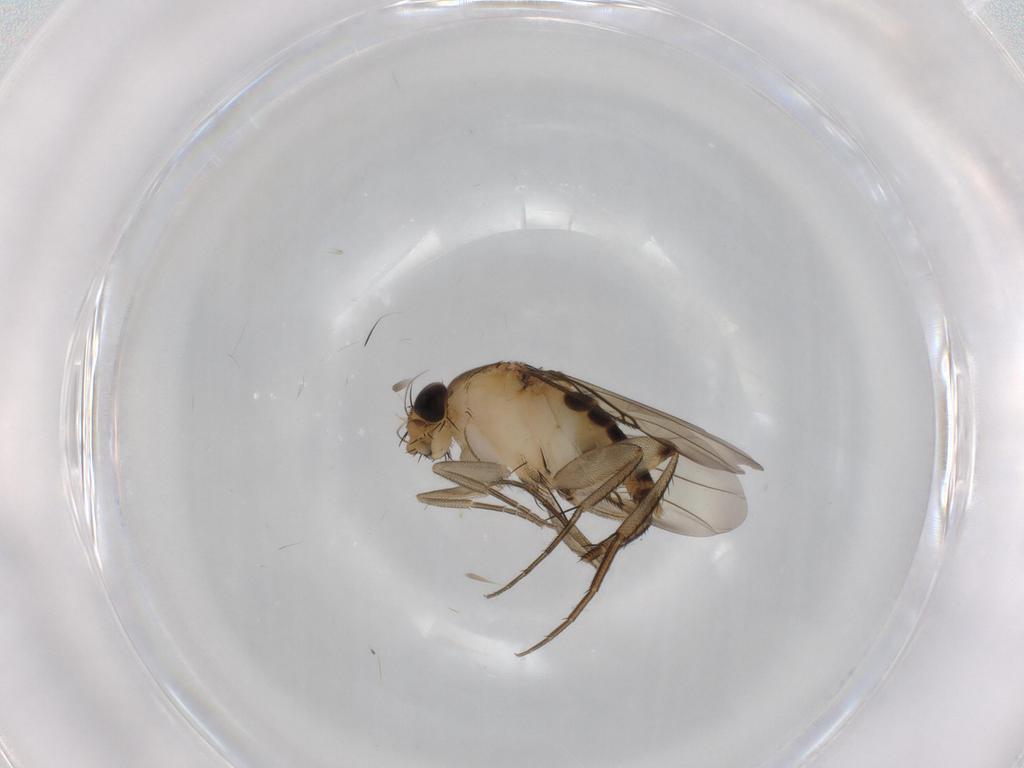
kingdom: Animalia
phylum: Arthropoda
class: Insecta
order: Diptera
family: Phoridae
